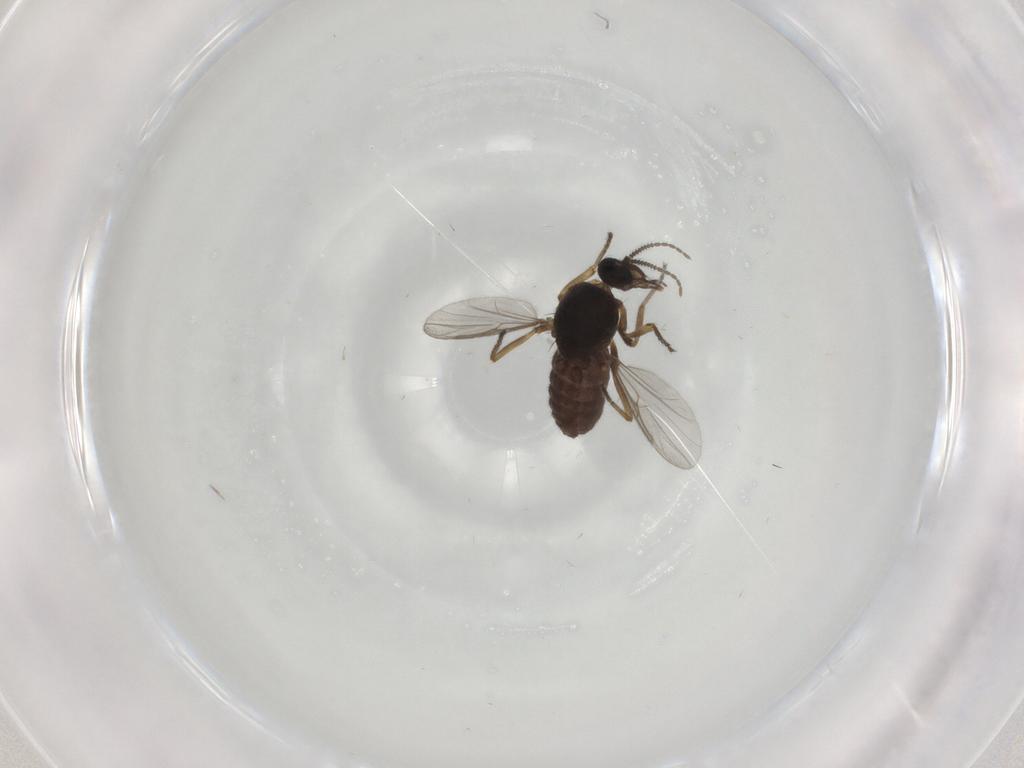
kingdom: Animalia
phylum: Arthropoda
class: Insecta
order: Diptera
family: Ceratopogonidae
